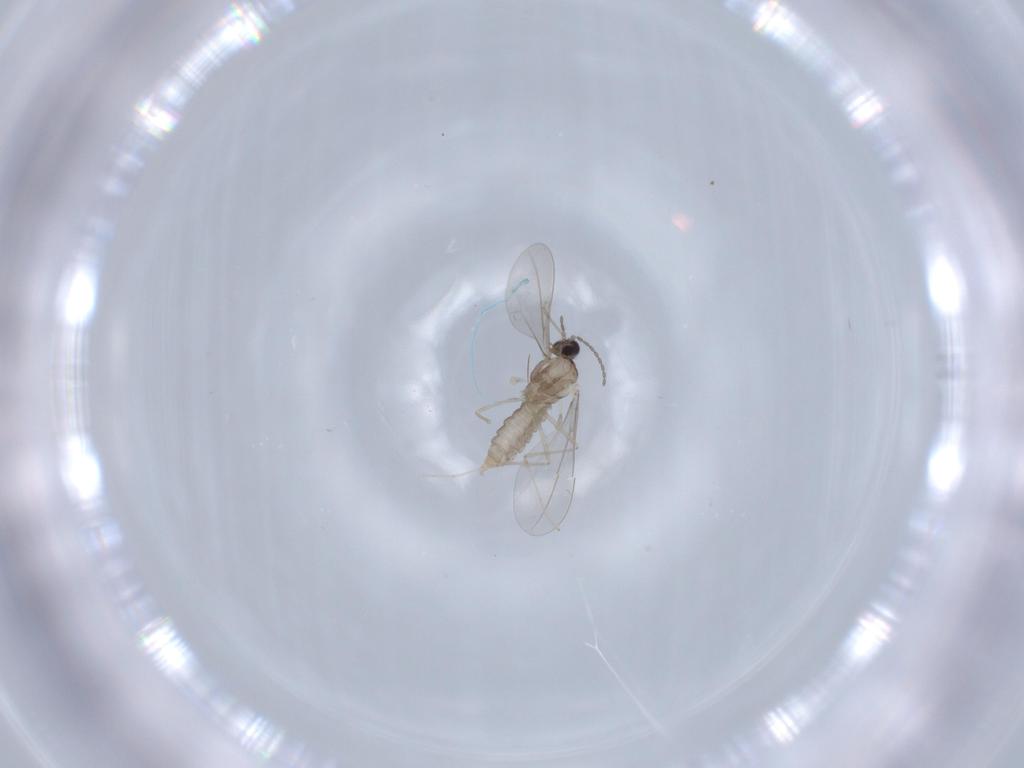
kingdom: Animalia
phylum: Arthropoda
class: Insecta
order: Diptera
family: Cecidomyiidae
